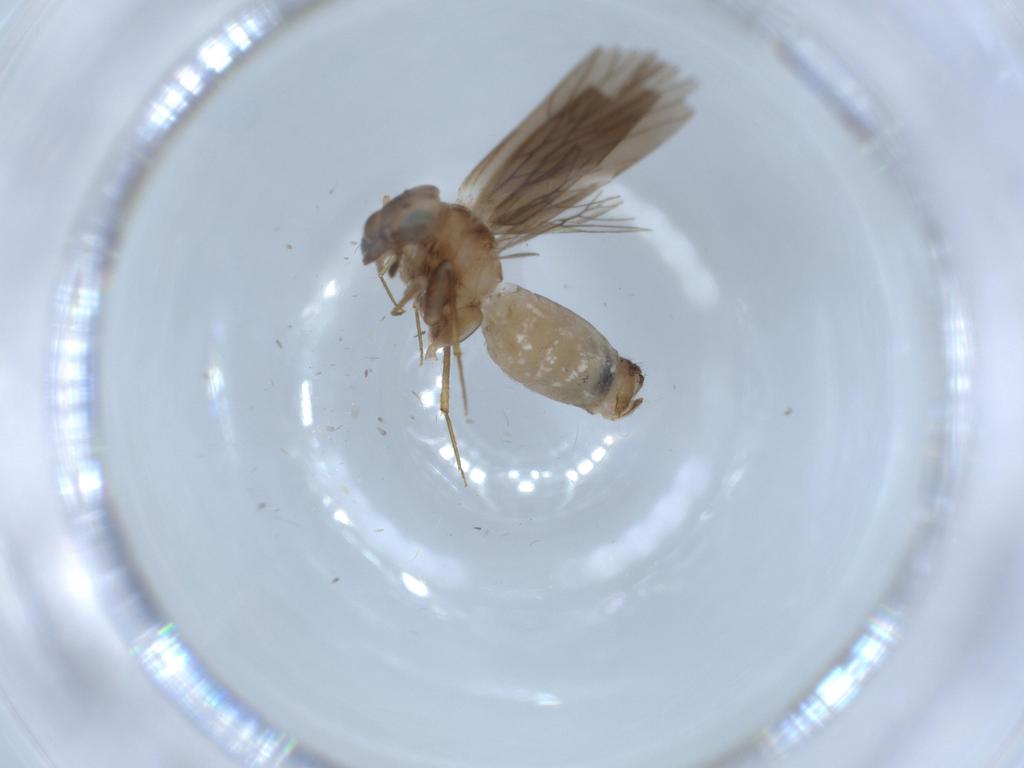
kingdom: Animalia
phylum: Arthropoda
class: Insecta
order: Psocodea
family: Lepidopsocidae
